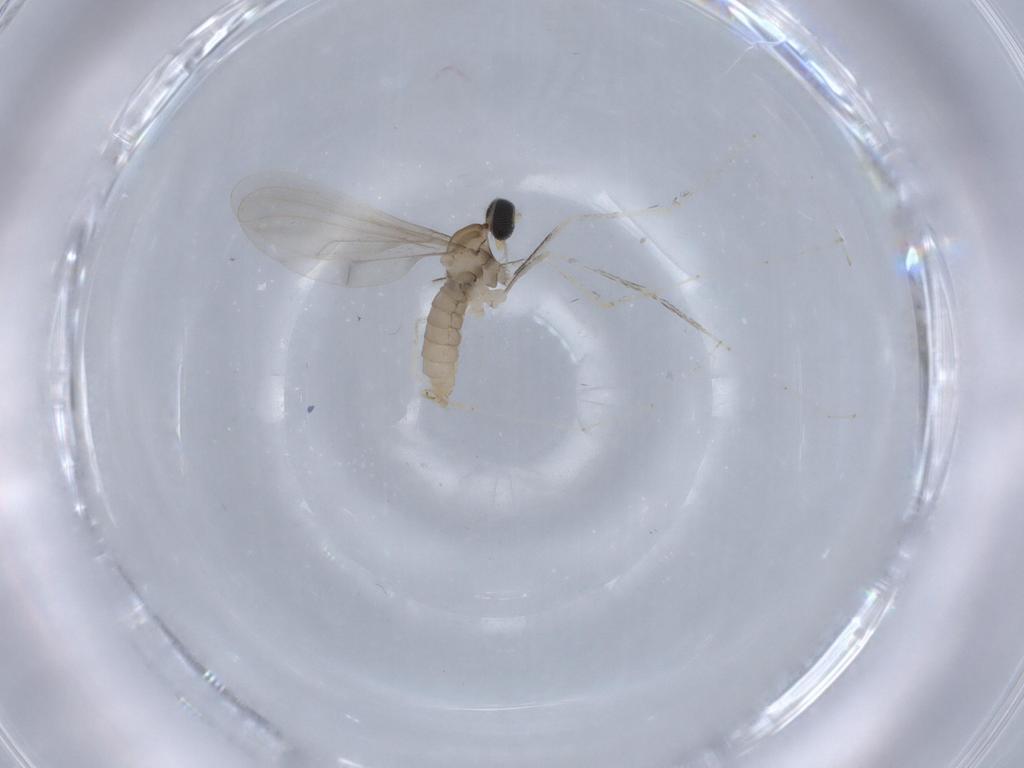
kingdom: Animalia
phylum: Arthropoda
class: Insecta
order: Diptera
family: Cecidomyiidae
